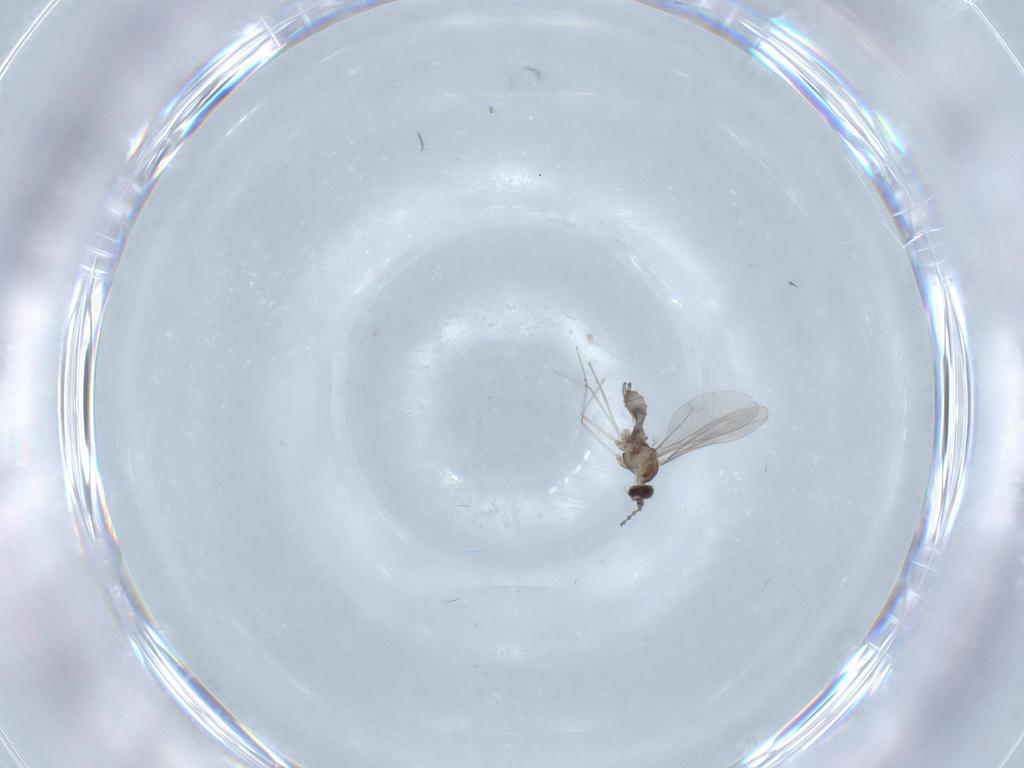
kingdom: Animalia
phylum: Arthropoda
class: Insecta
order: Diptera
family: Cecidomyiidae
